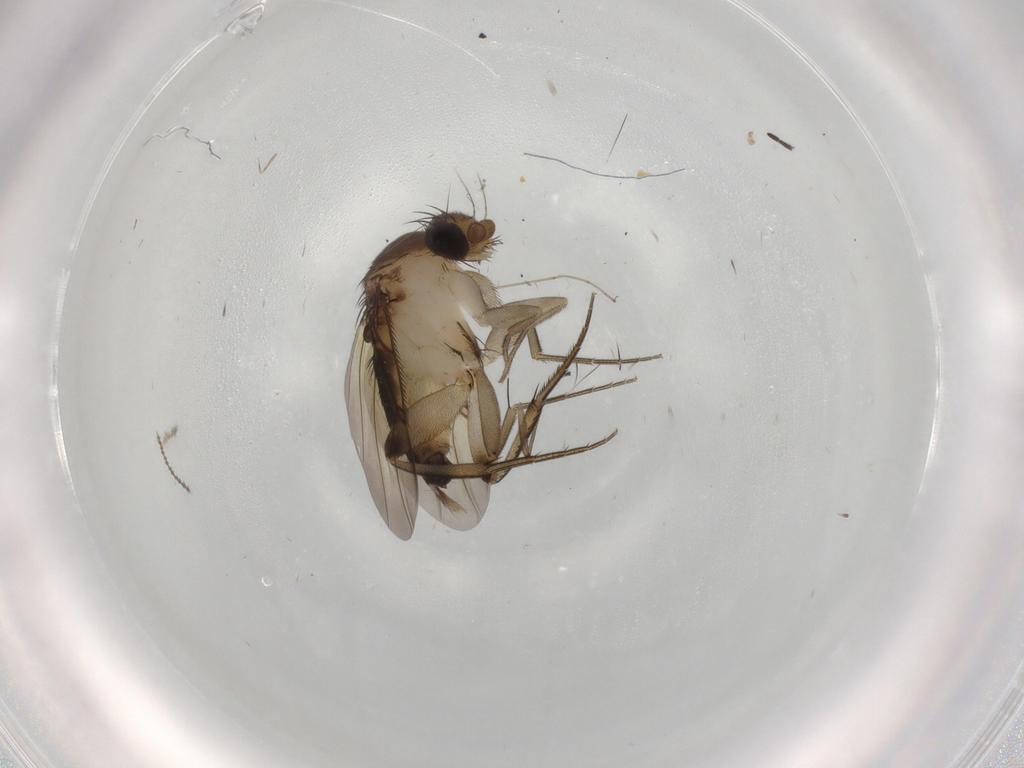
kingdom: Animalia
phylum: Arthropoda
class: Insecta
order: Diptera
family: Phoridae
